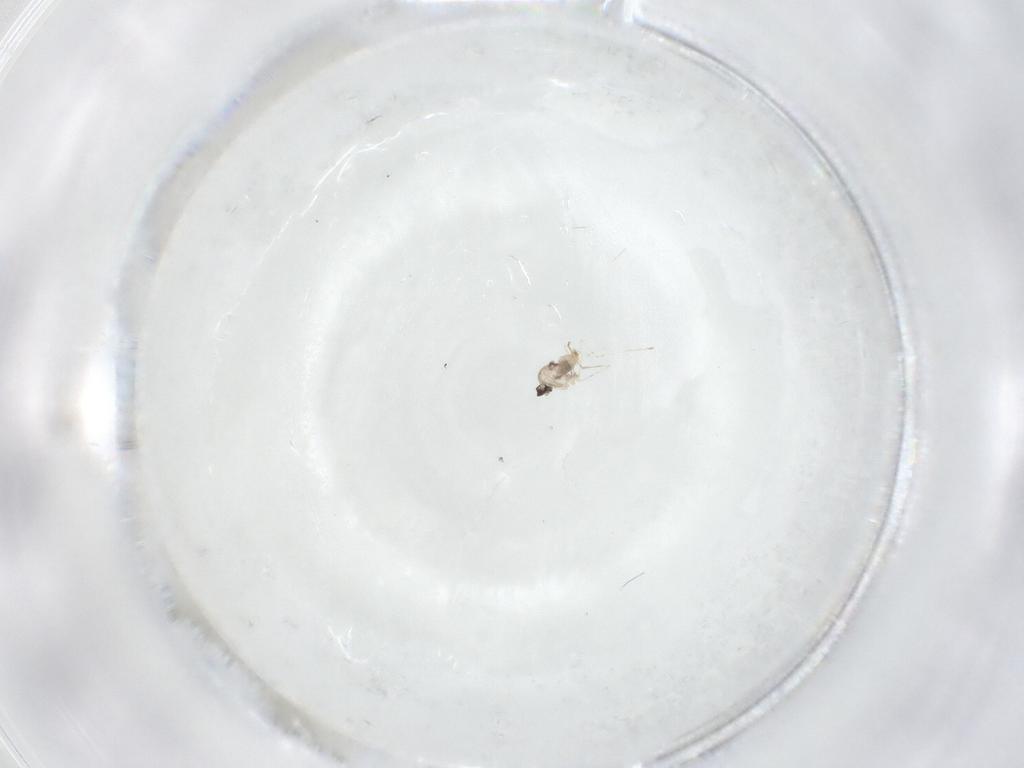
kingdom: Animalia
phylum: Arthropoda
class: Insecta
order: Diptera
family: Cecidomyiidae
